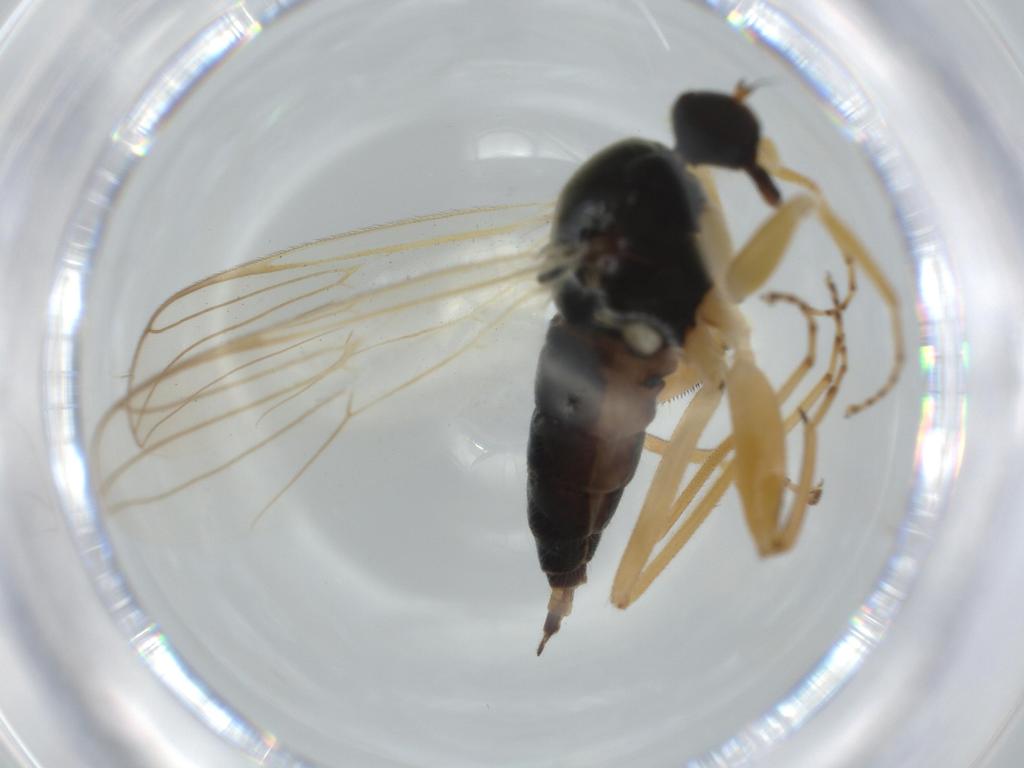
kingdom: Animalia
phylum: Arthropoda
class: Insecta
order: Diptera
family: Hybotidae
